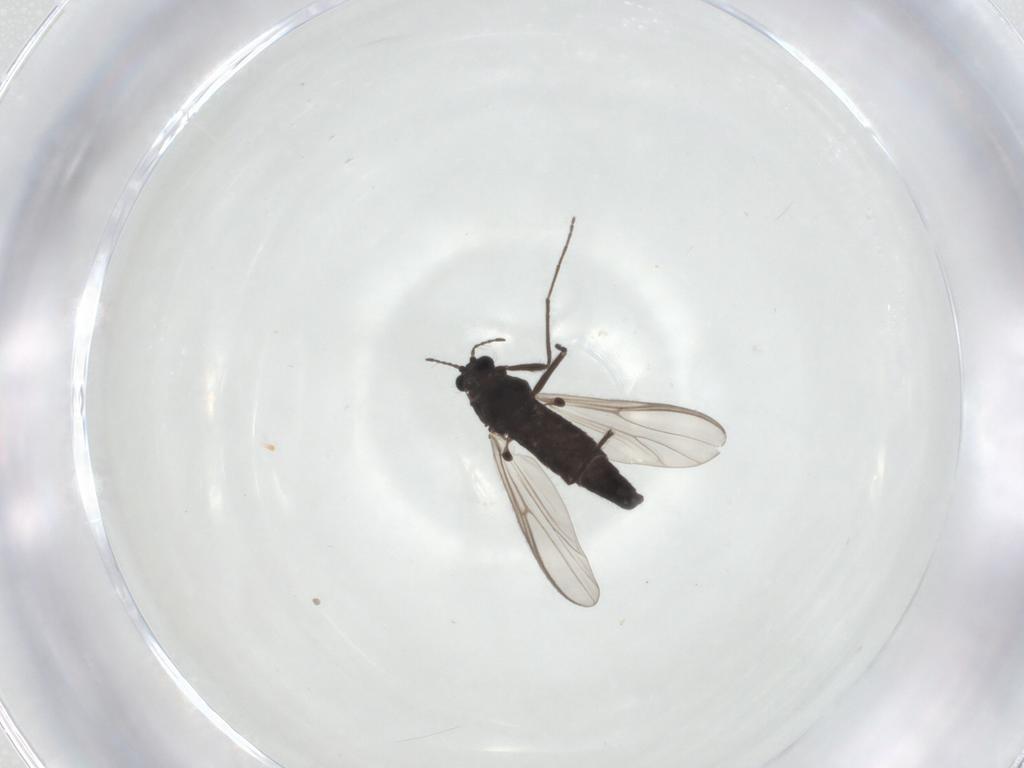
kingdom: Animalia
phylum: Arthropoda
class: Insecta
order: Diptera
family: Chironomidae
